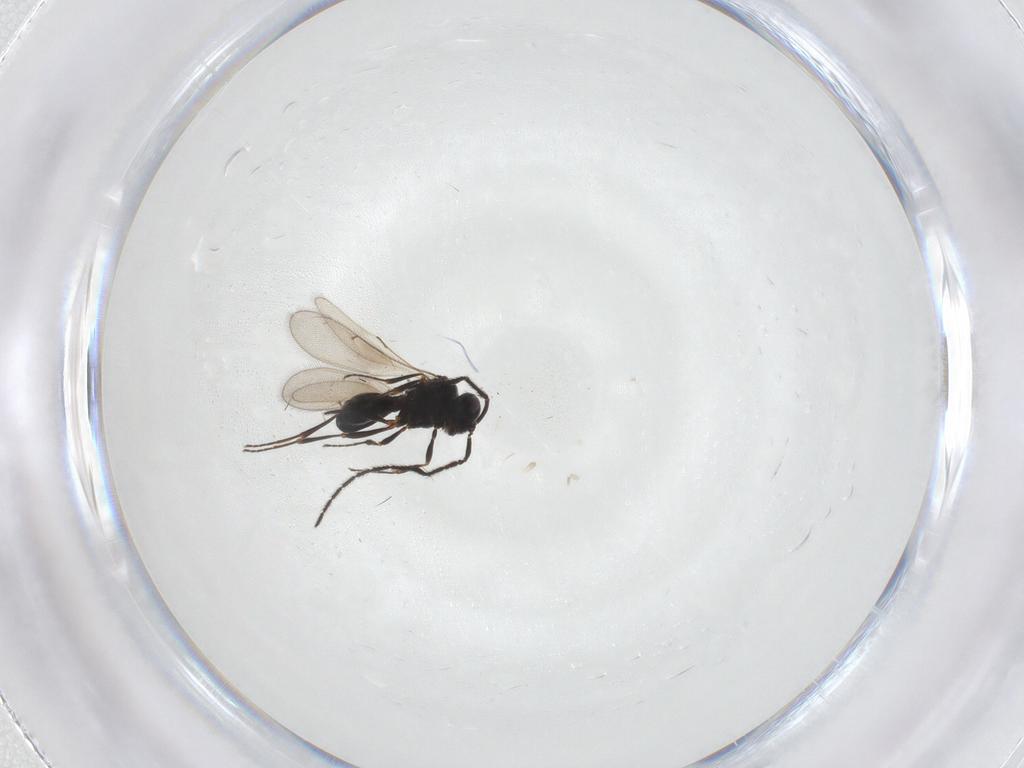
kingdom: Animalia
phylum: Arthropoda
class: Insecta
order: Hymenoptera
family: Scelionidae
